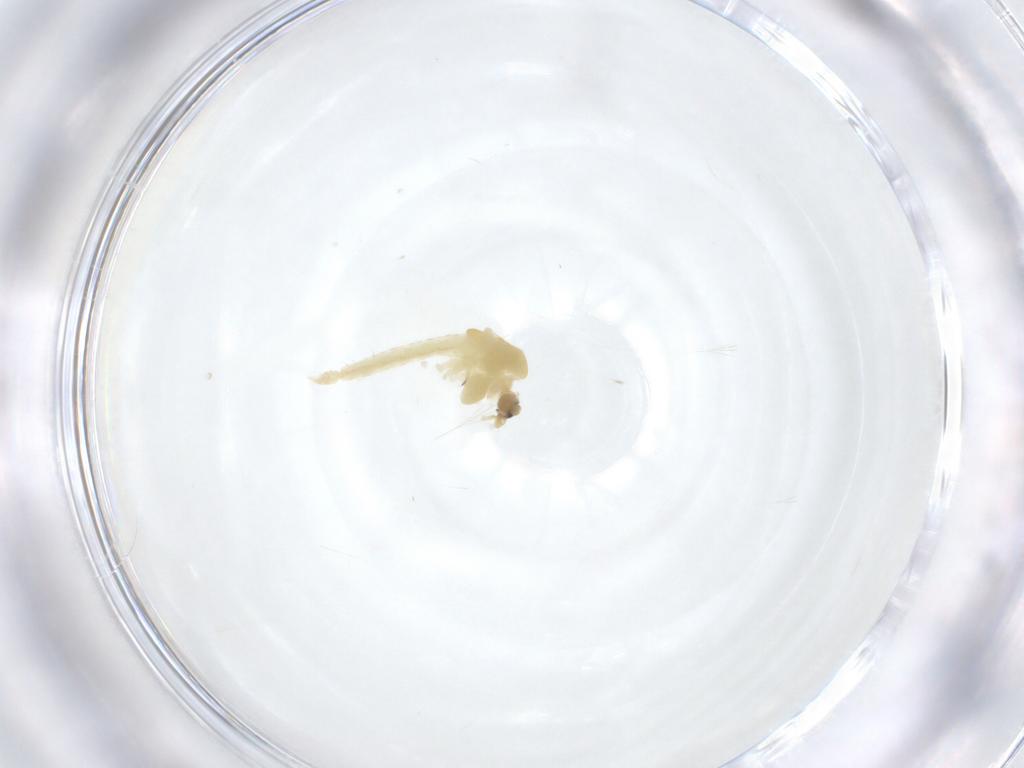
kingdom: Animalia
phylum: Arthropoda
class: Insecta
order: Diptera
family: Chironomidae
